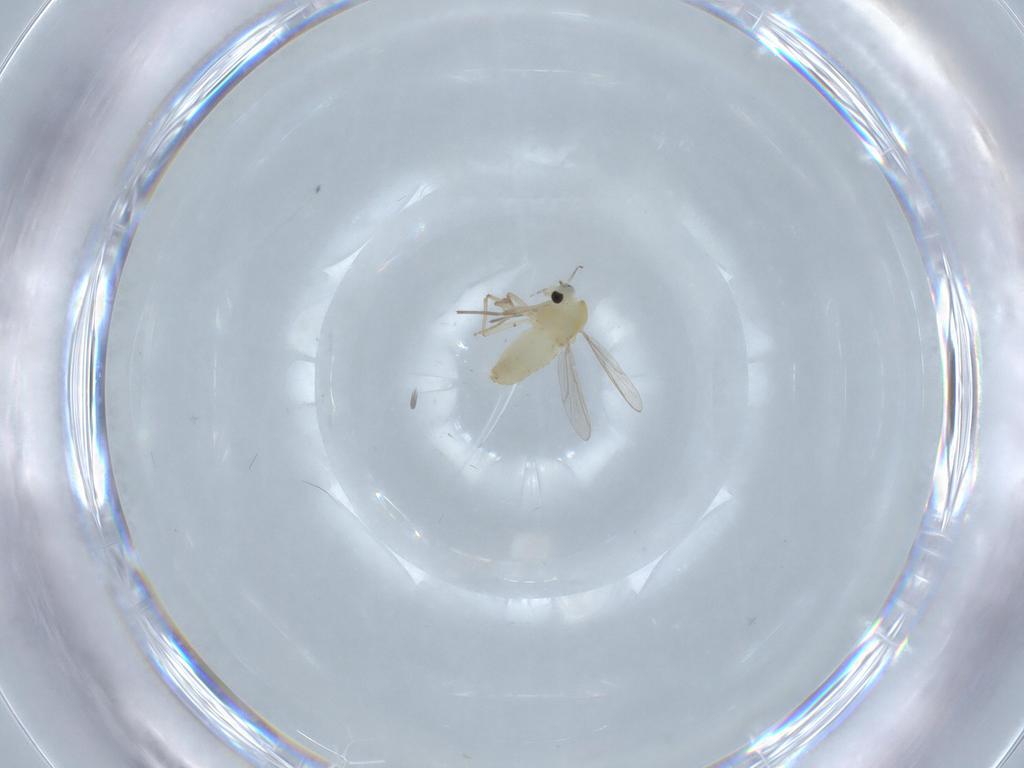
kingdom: Animalia
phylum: Arthropoda
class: Insecta
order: Diptera
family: Chironomidae
